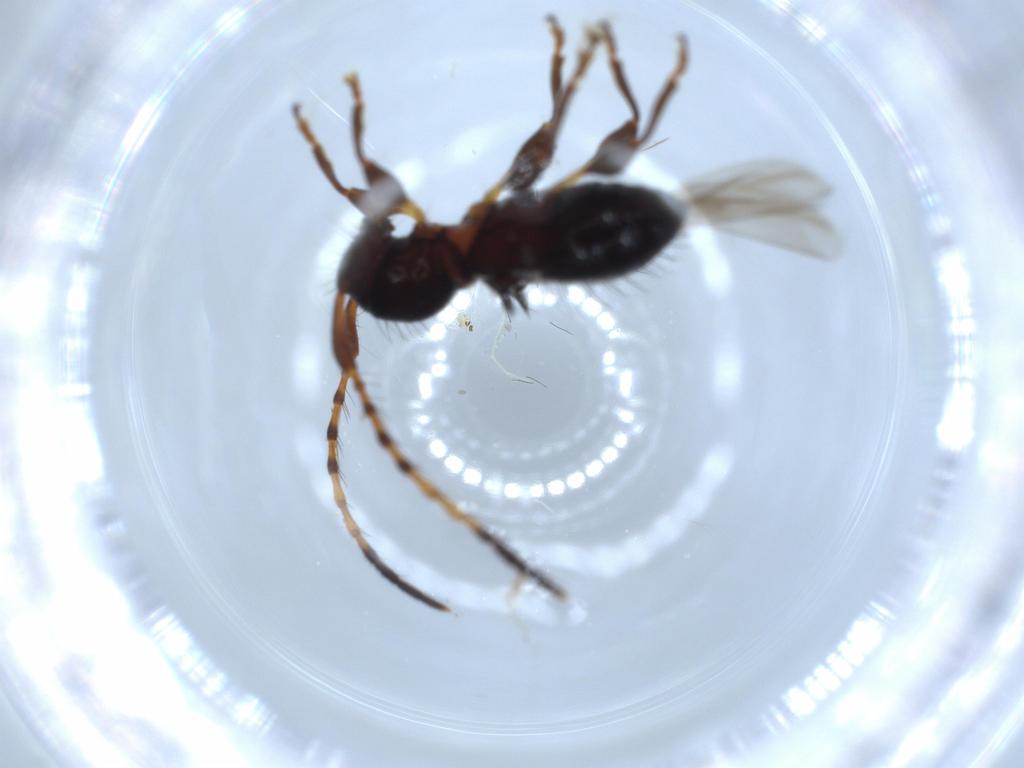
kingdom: Animalia
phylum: Arthropoda
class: Insecta
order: Coleoptera
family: Cerambycidae
